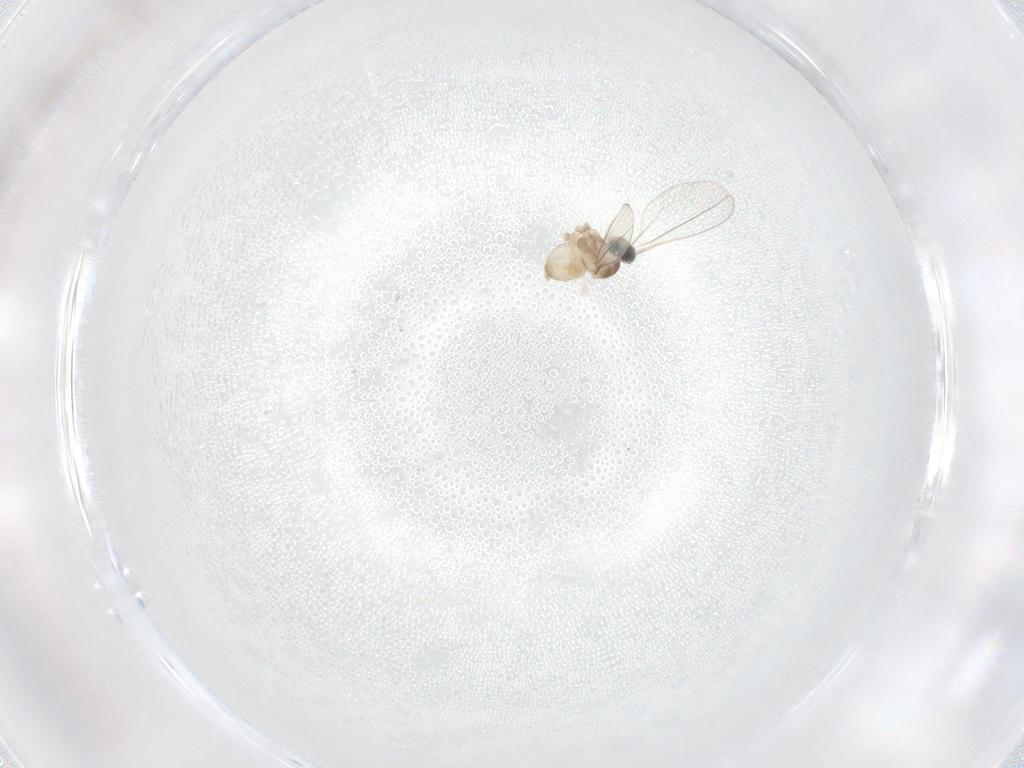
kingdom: Animalia
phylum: Arthropoda
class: Insecta
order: Diptera
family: Cecidomyiidae
